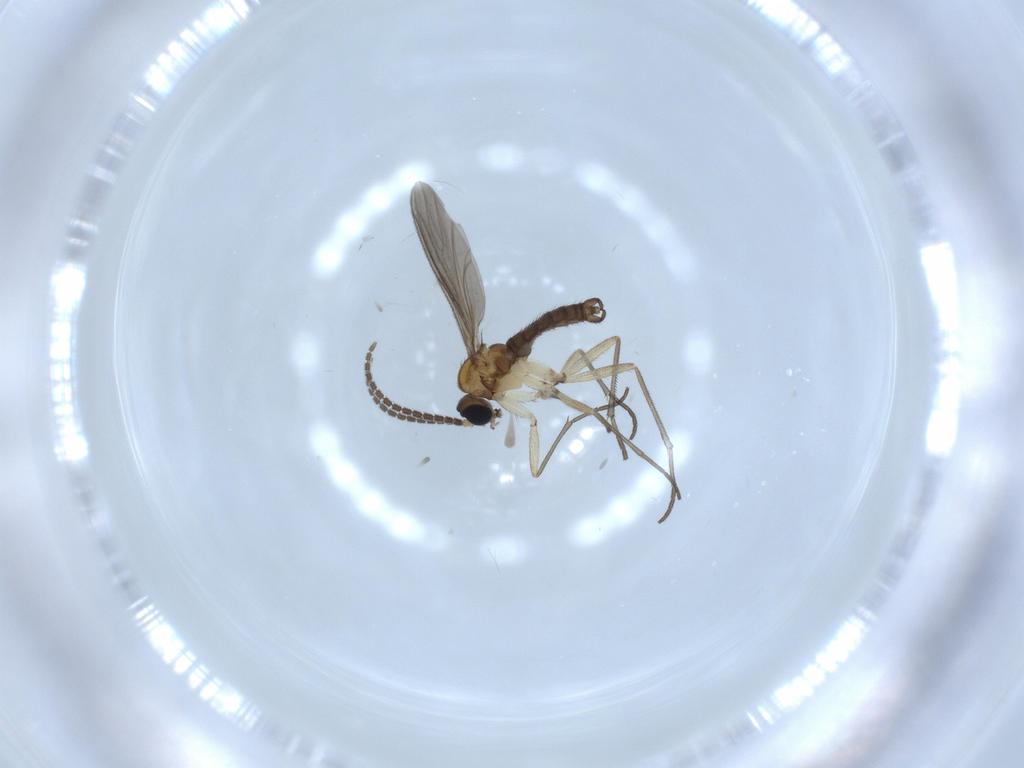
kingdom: Animalia
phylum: Arthropoda
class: Insecta
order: Diptera
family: Sciaridae
